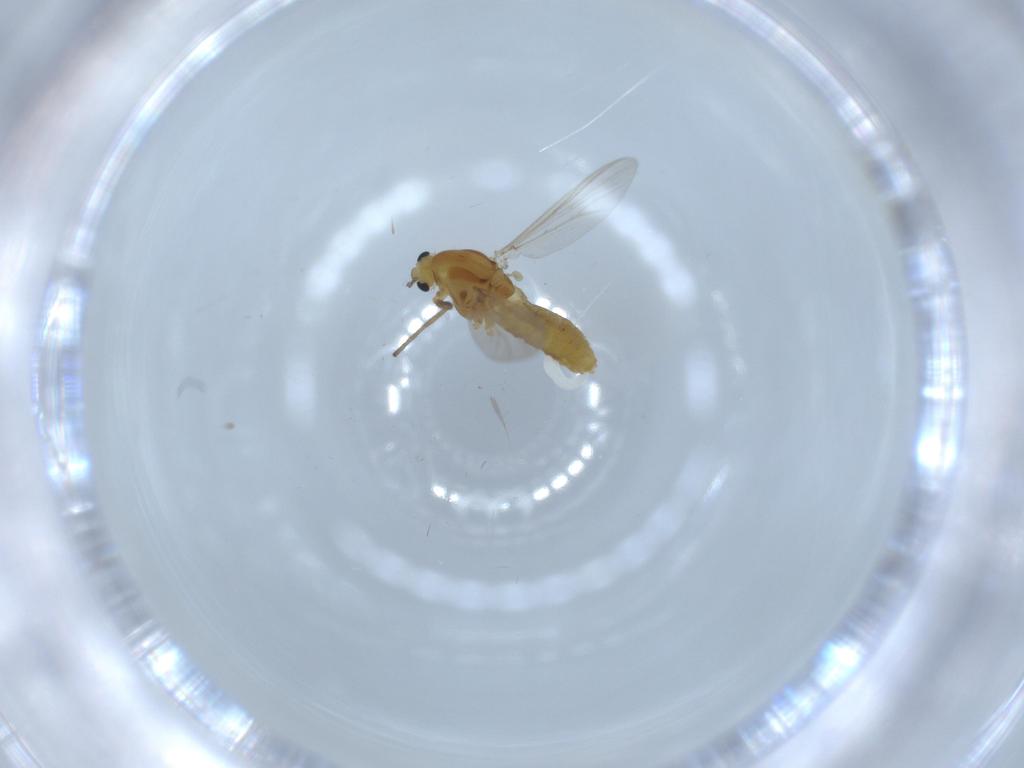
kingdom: Animalia
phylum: Arthropoda
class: Insecta
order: Diptera
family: Chironomidae
